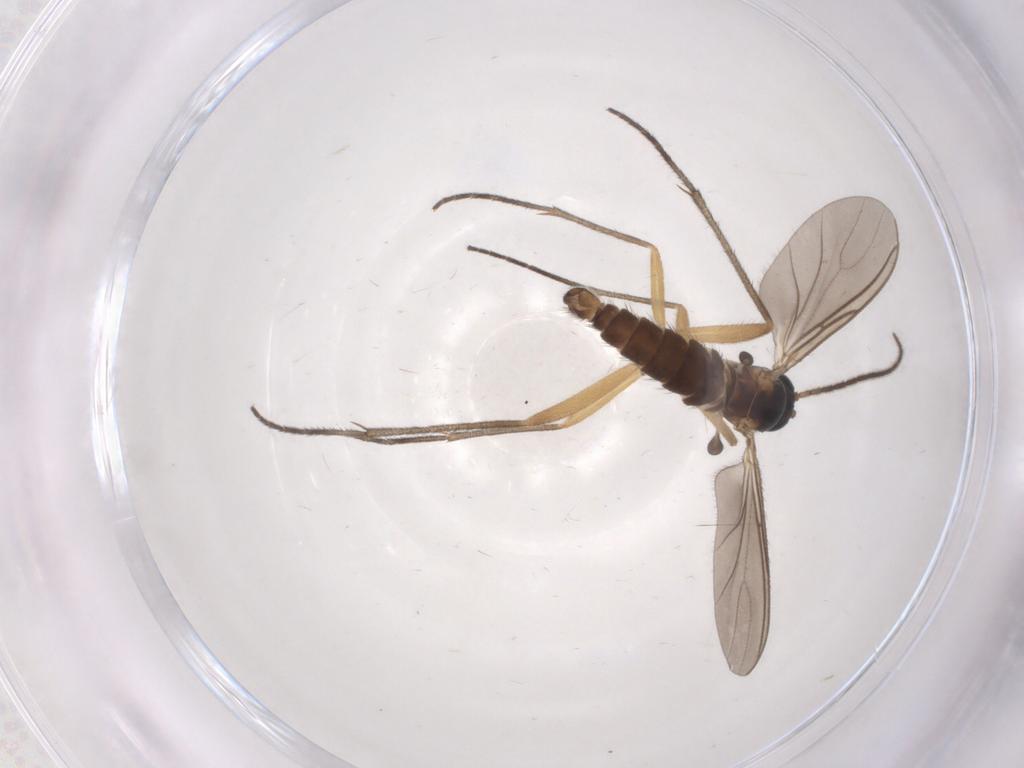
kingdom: Animalia
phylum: Arthropoda
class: Insecta
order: Diptera
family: Sciaridae
